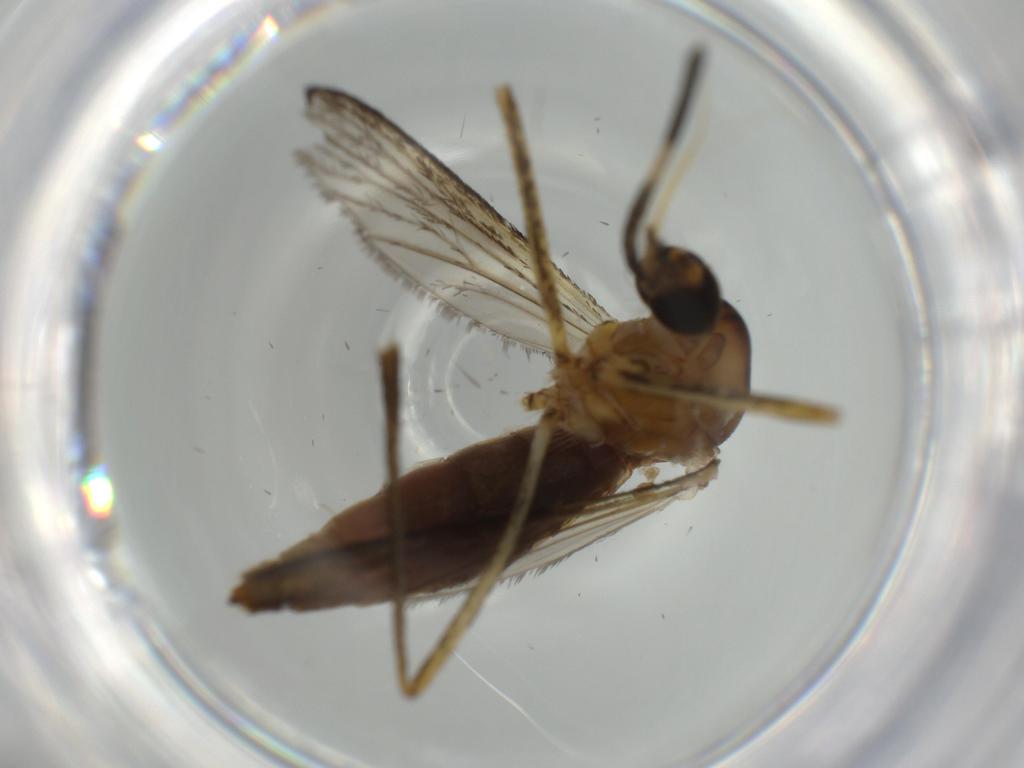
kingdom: Animalia
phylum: Arthropoda
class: Insecta
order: Diptera
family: Culicidae
